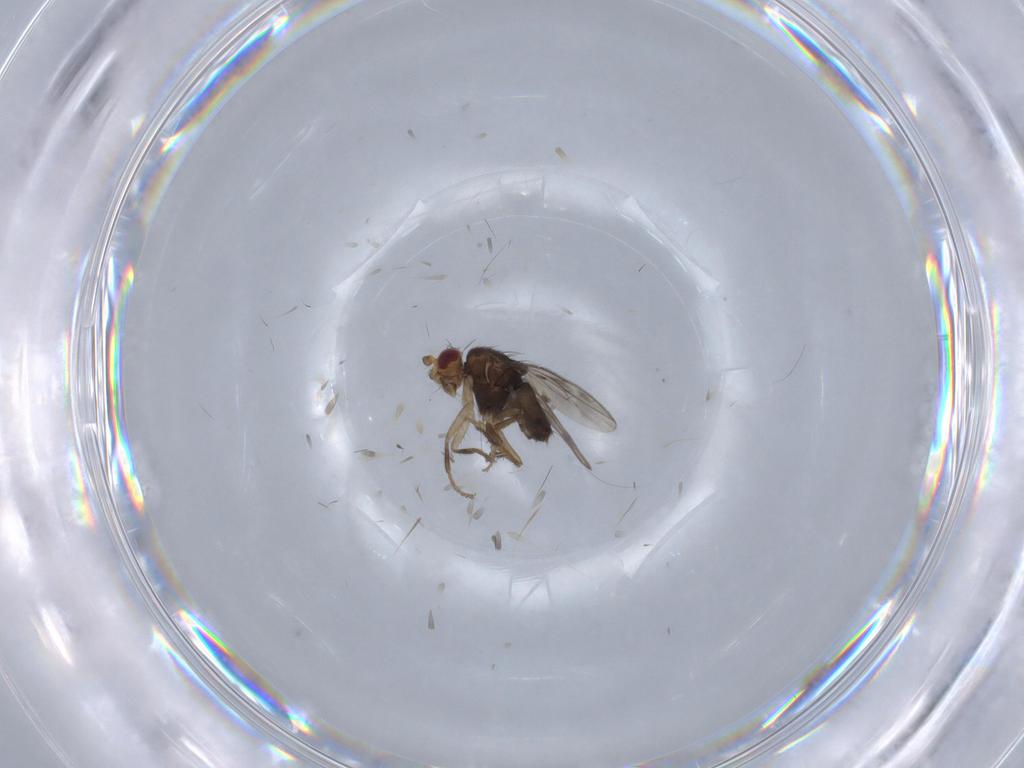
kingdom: Animalia
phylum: Arthropoda
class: Insecta
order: Diptera
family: Sphaeroceridae
